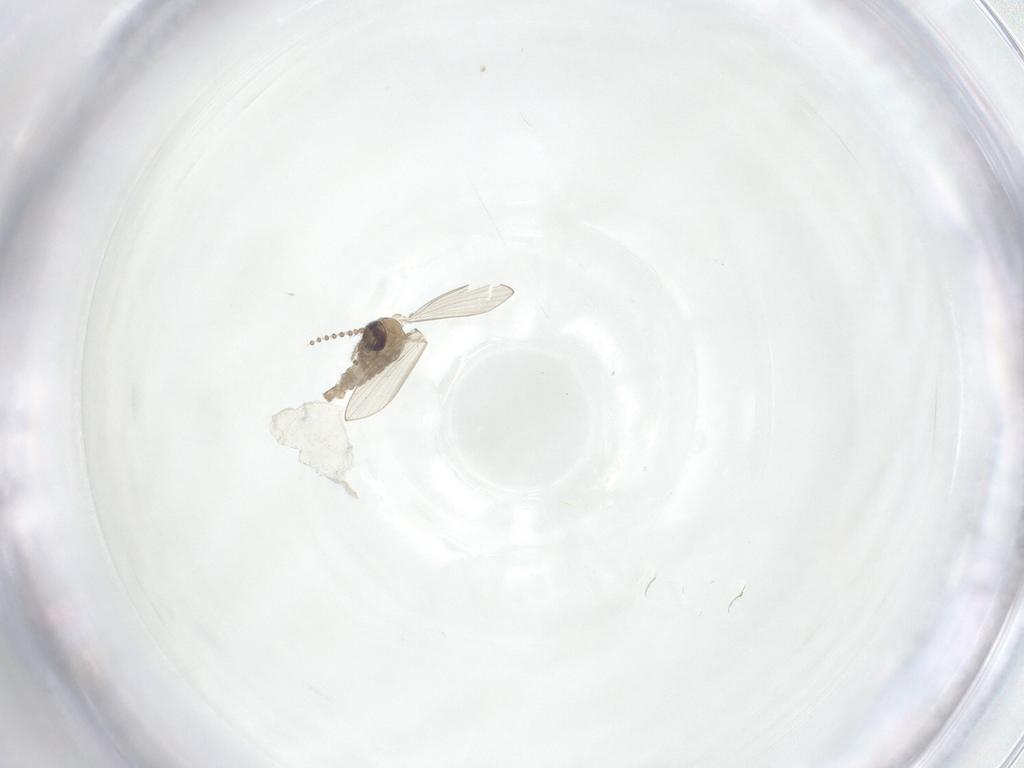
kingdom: Animalia
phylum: Arthropoda
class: Insecta
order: Diptera
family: Psychodidae
